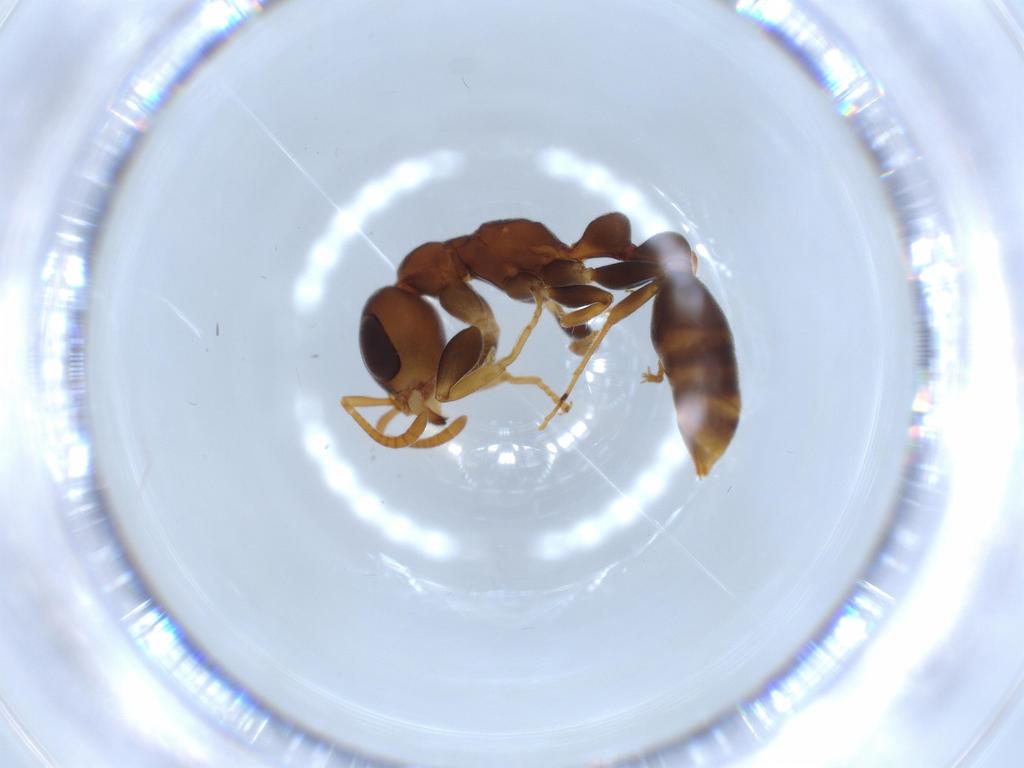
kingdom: Animalia
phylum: Arthropoda
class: Insecta
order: Hymenoptera
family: Formicidae
